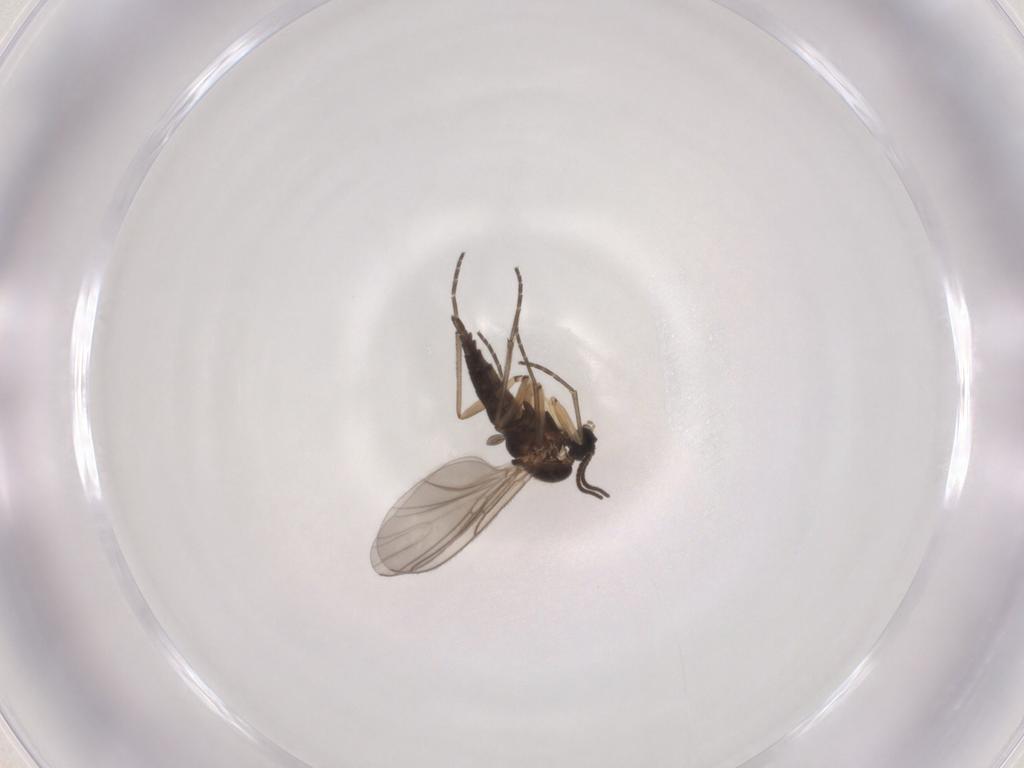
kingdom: Animalia
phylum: Arthropoda
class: Insecta
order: Diptera
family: Sciaridae
